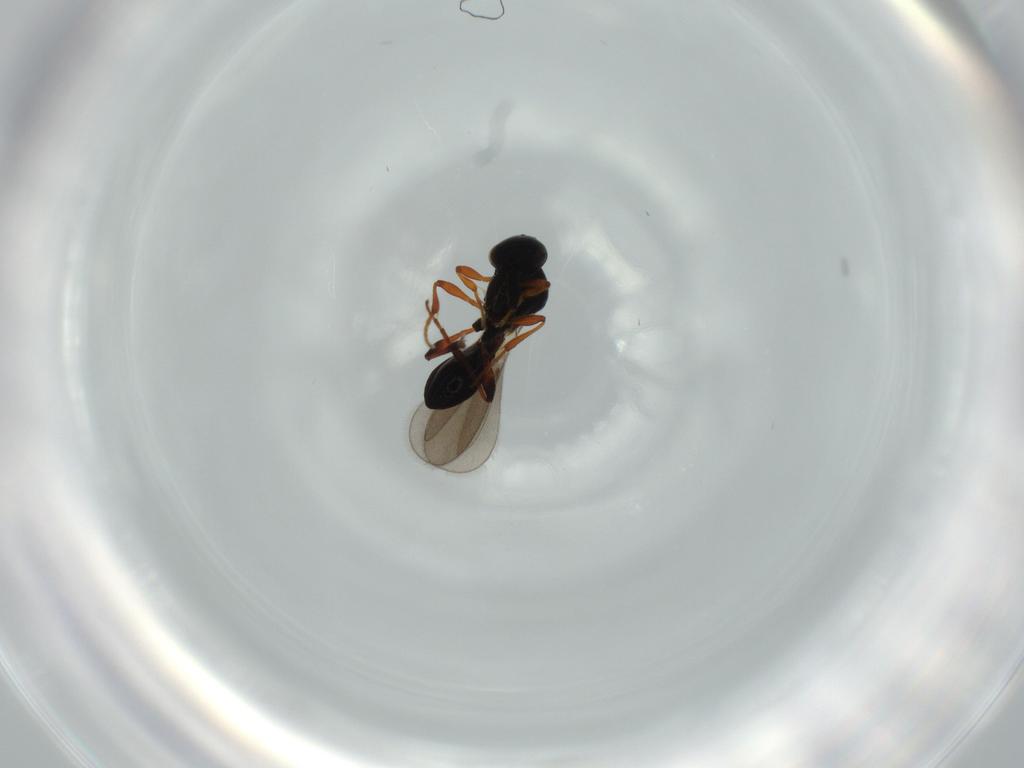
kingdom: Animalia
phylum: Arthropoda
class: Insecta
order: Hymenoptera
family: Platygastridae
